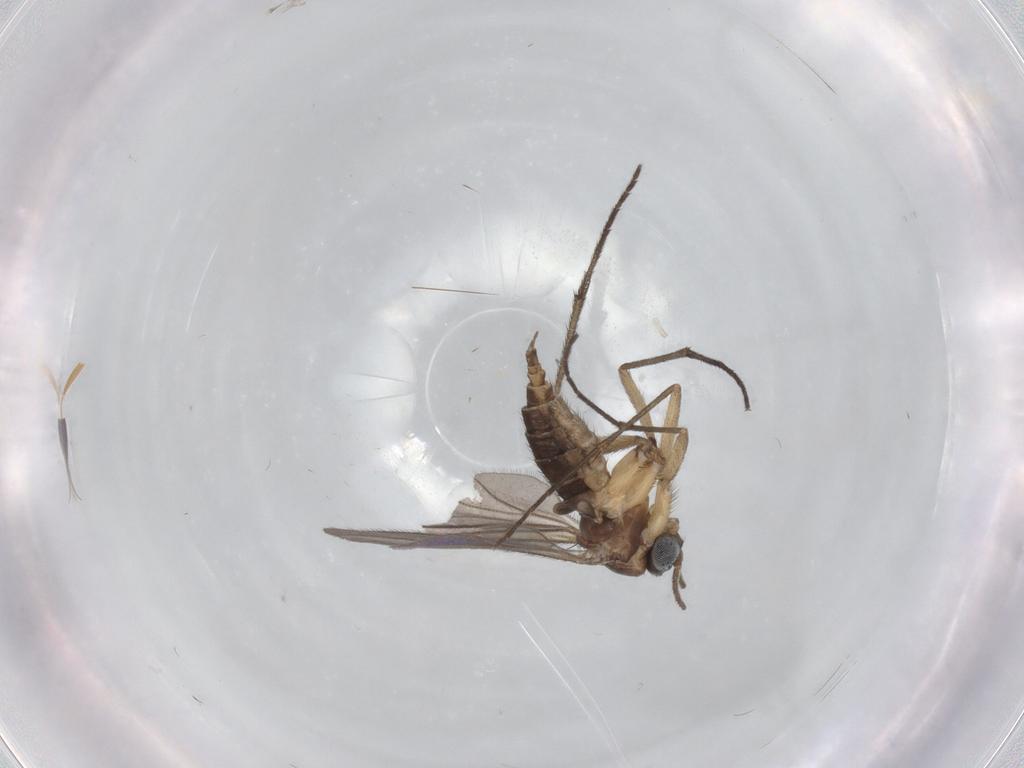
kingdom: Animalia
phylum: Arthropoda
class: Insecta
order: Diptera
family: Sciaridae
